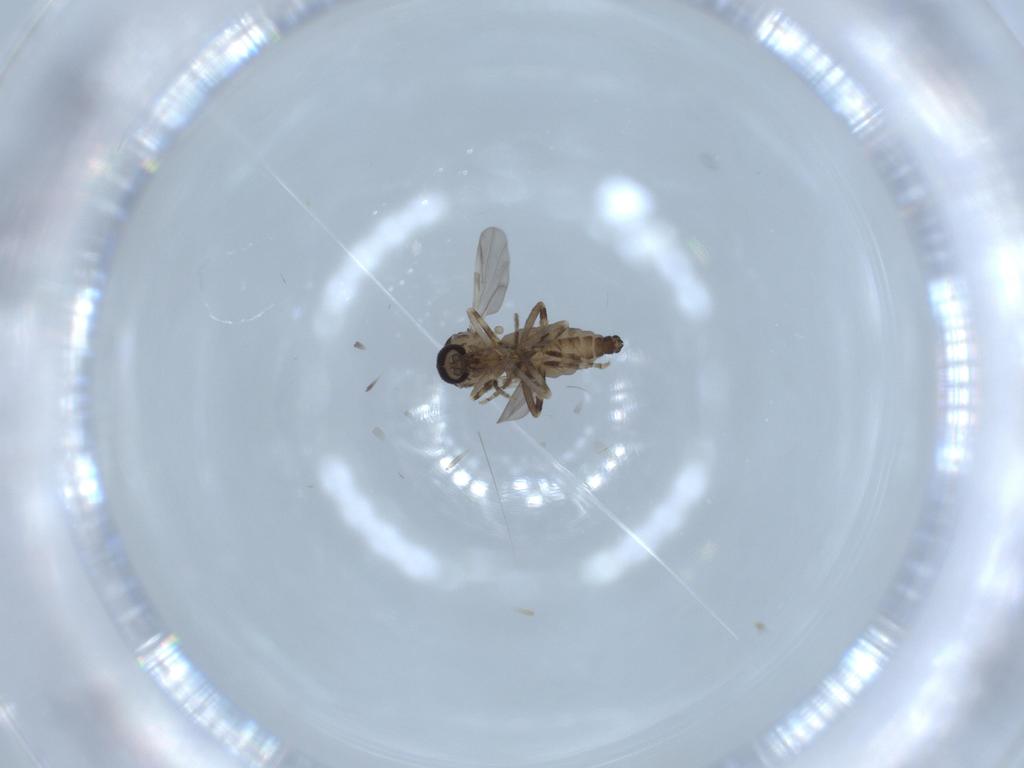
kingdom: Animalia
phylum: Arthropoda
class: Insecta
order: Diptera
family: Ceratopogonidae
